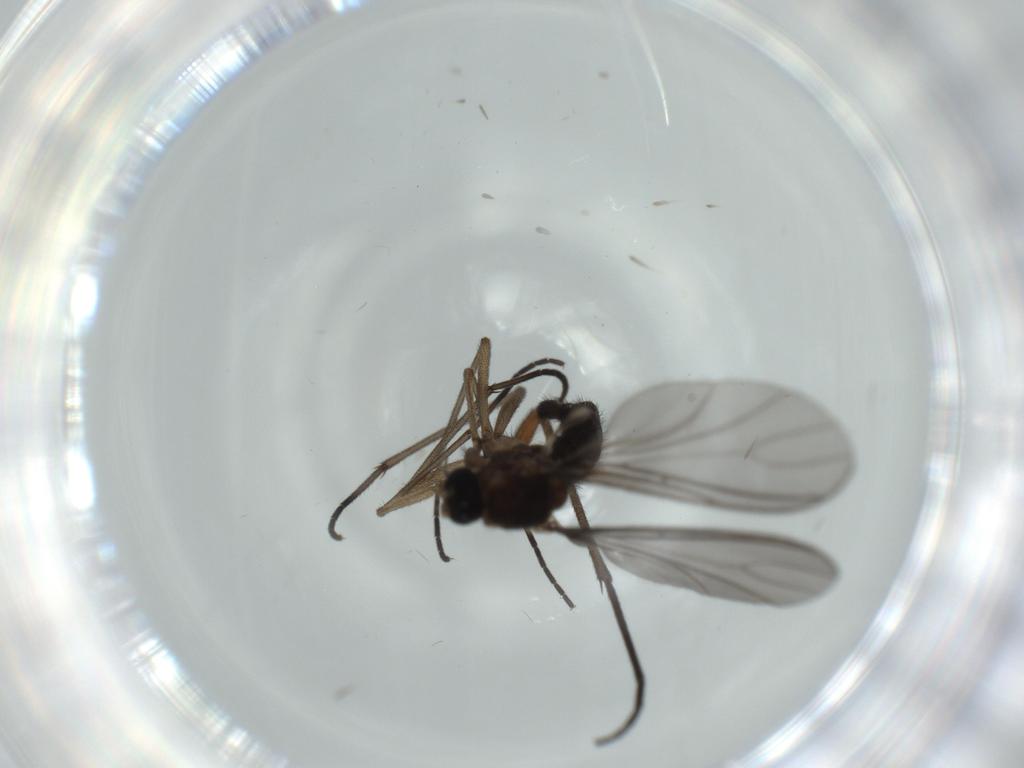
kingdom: Animalia
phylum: Arthropoda
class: Insecta
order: Diptera
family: Sciaridae
